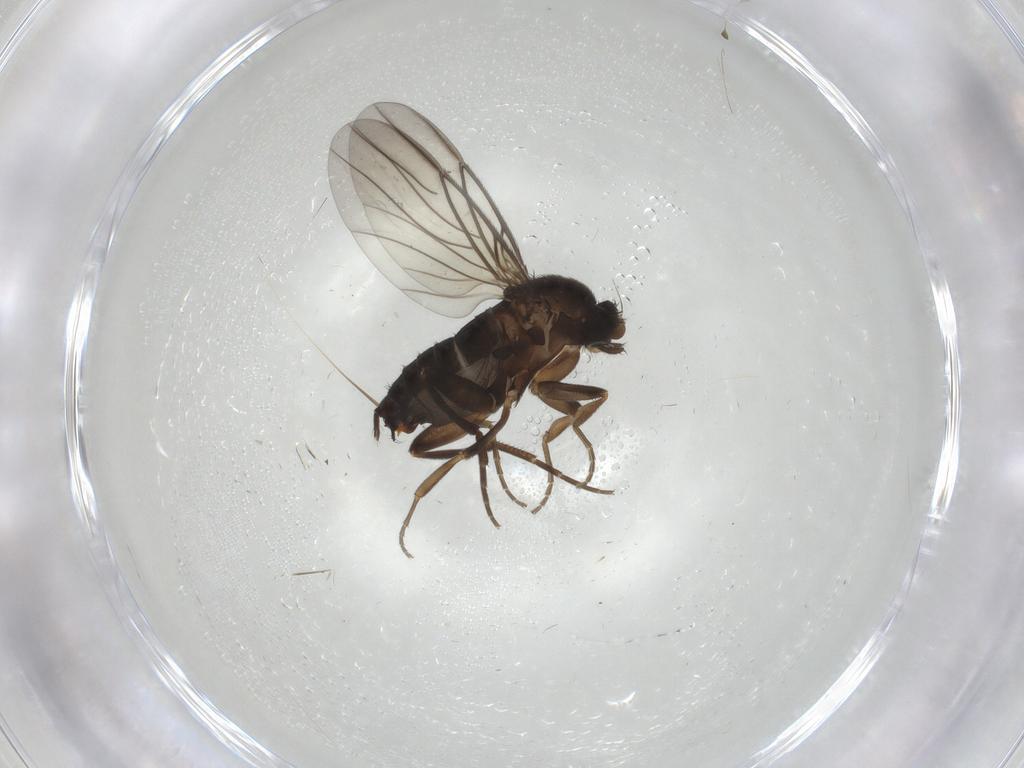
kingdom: Animalia
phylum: Arthropoda
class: Insecta
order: Diptera
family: Phoridae
